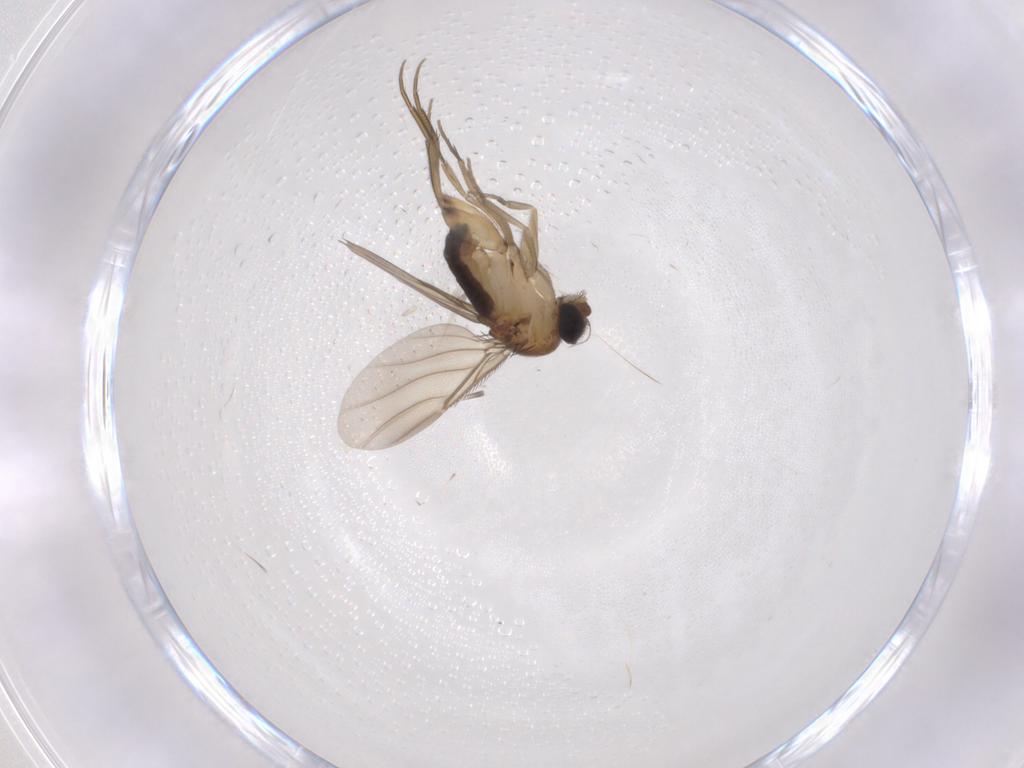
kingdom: Animalia
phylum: Arthropoda
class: Insecta
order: Diptera
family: Phoridae
